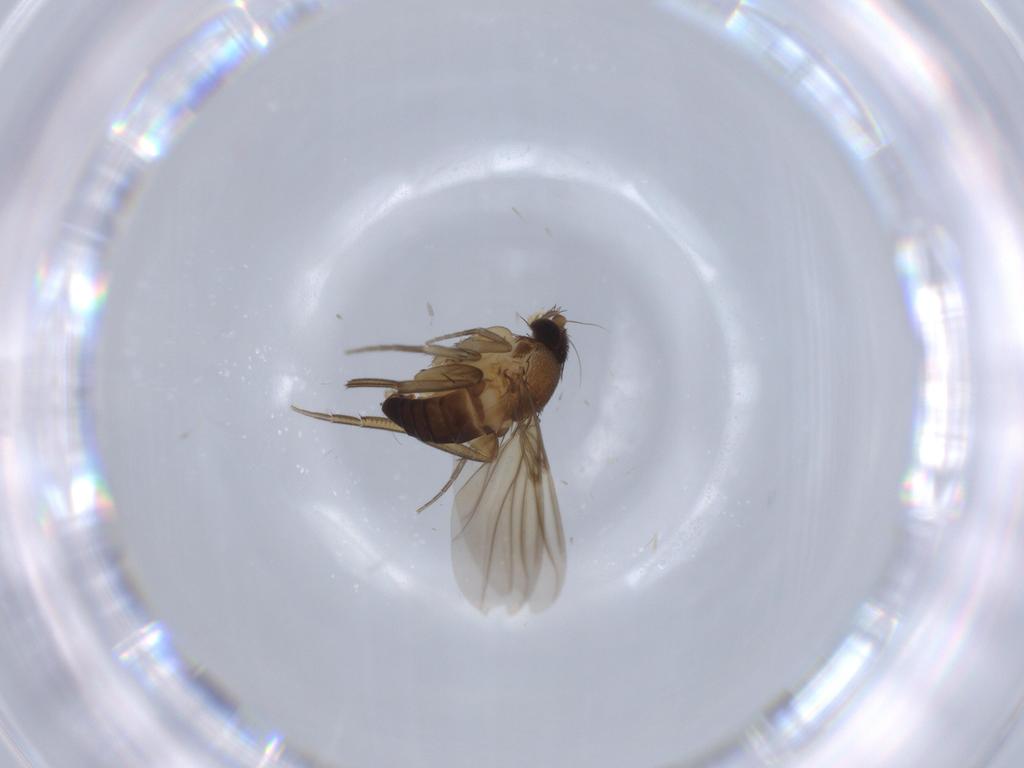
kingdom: Animalia
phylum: Arthropoda
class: Insecta
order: Diptera
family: Phoridae
